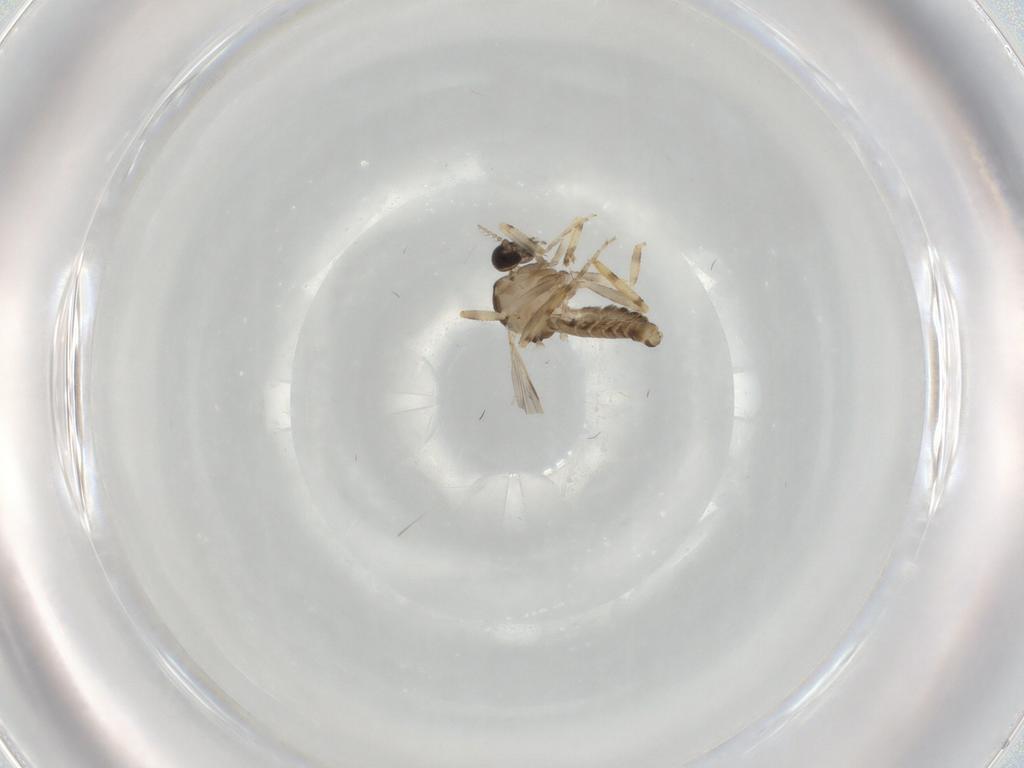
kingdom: Animalia
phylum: Arthropoda
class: Insecta
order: Diptera
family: Ceratopogonidae
